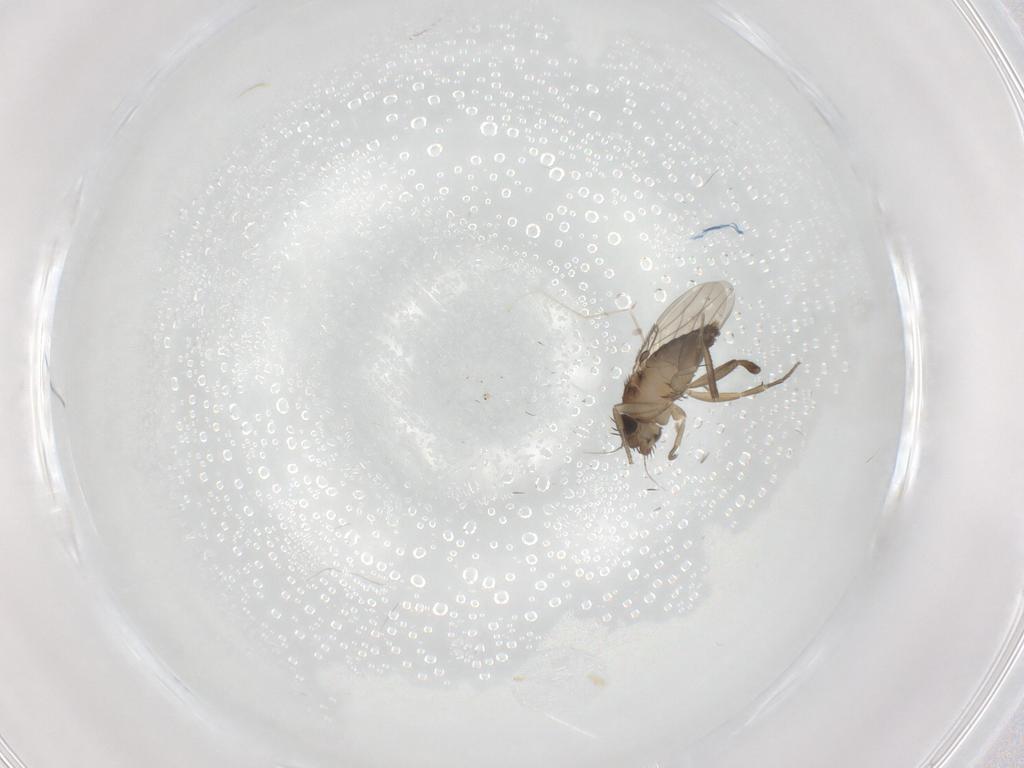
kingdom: Animalia
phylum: Arthropoda
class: Insecta
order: Diptera
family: Phoridae
